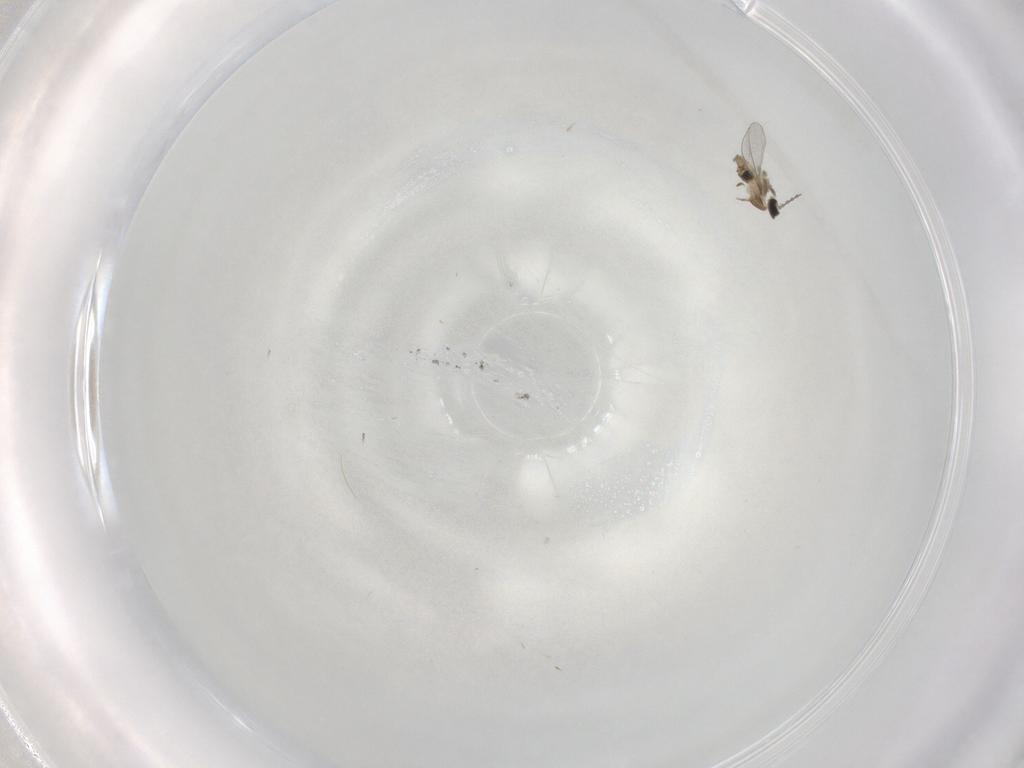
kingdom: Animalia
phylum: Arthropoda
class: Insecta
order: Diptera
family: Cecidomyiidae
